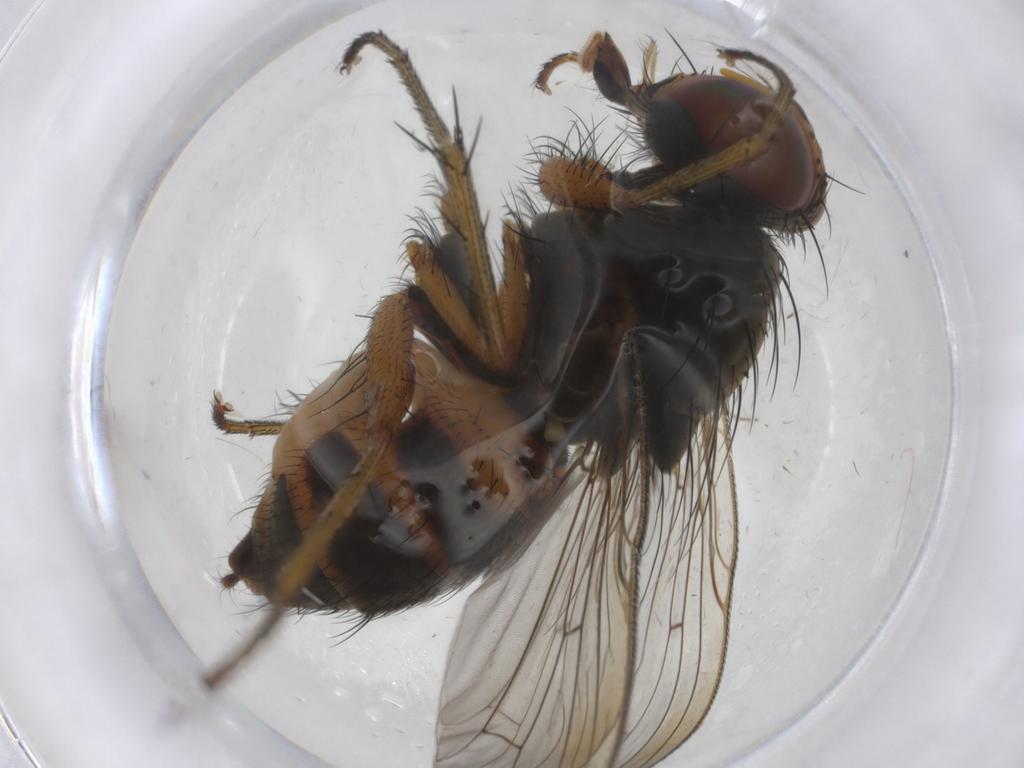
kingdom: Animalia
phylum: Arthropoda
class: Insecta
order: Diptera
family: Muscidae
